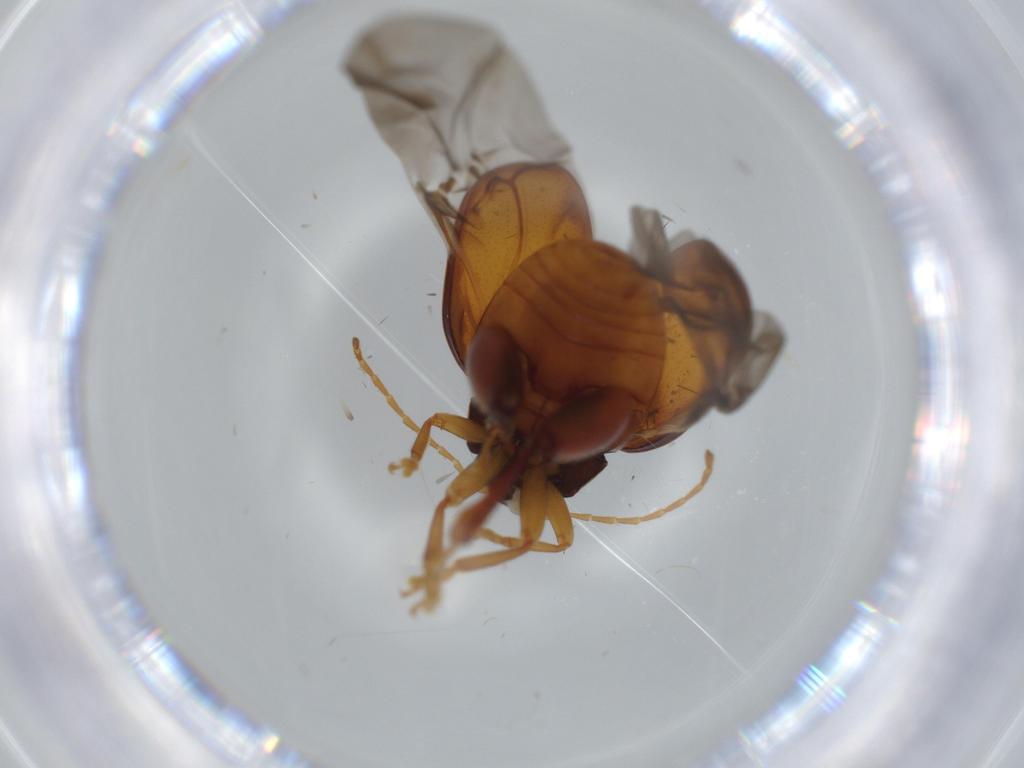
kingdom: Animalia
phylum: Arthropoda
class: Insecta
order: Coleoptera
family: Chrysomelidae
